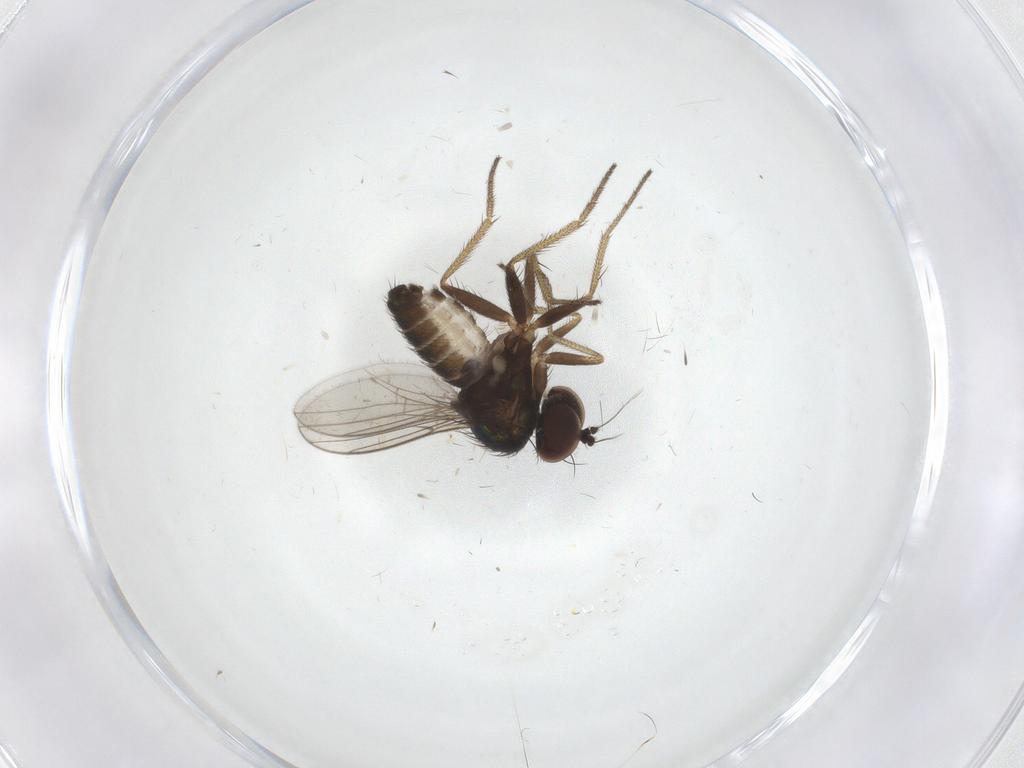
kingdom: Animalia
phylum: Arthropoda
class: Insecta
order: Diptera
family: Dolichopodidae
